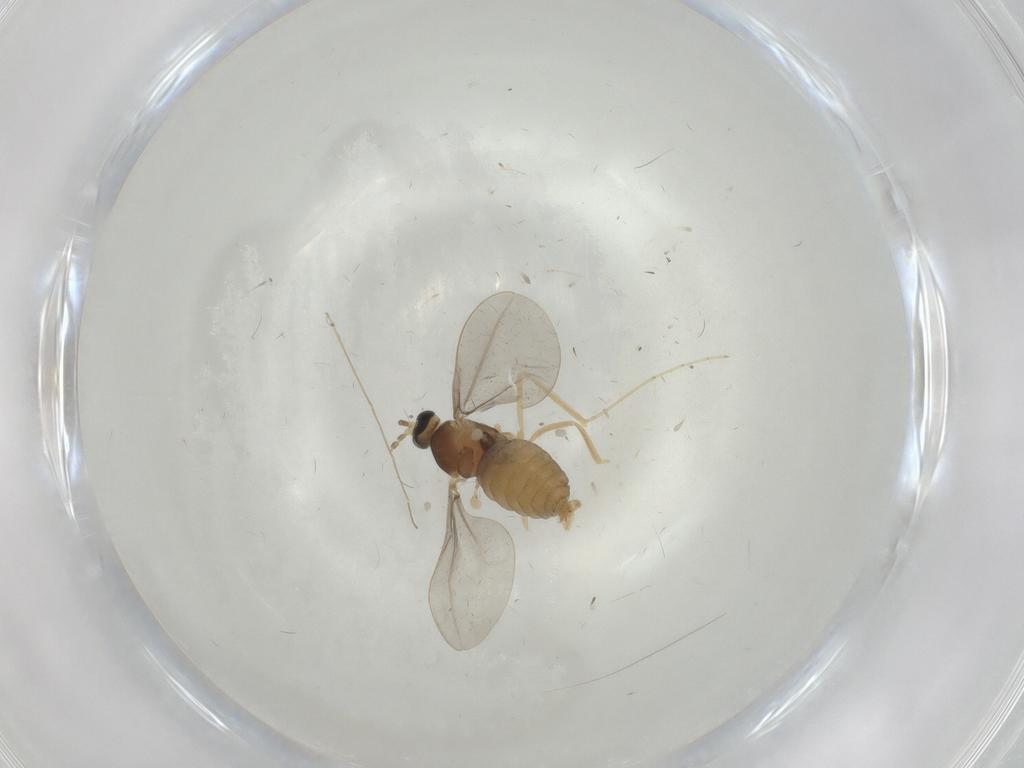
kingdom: Animalia
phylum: Arthropoda
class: Insecta
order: Diptera
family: Cecidomyiidae
